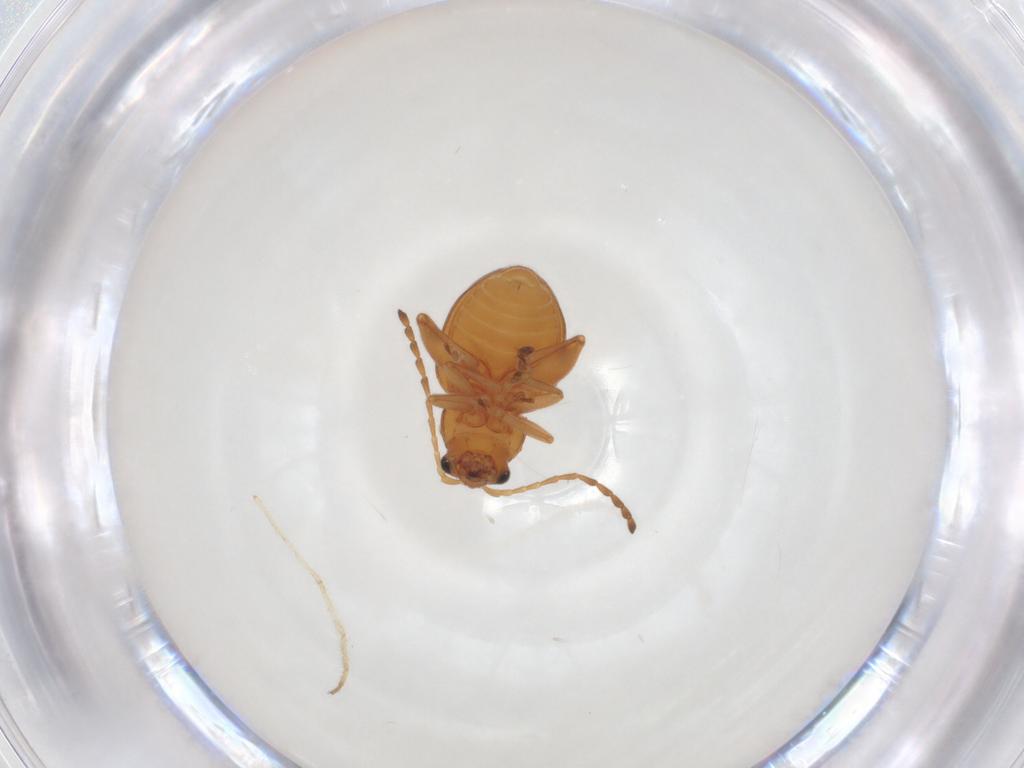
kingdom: Animalia
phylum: Arthropoda
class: Insecta
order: Coleoptera
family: Chrysomelidae
